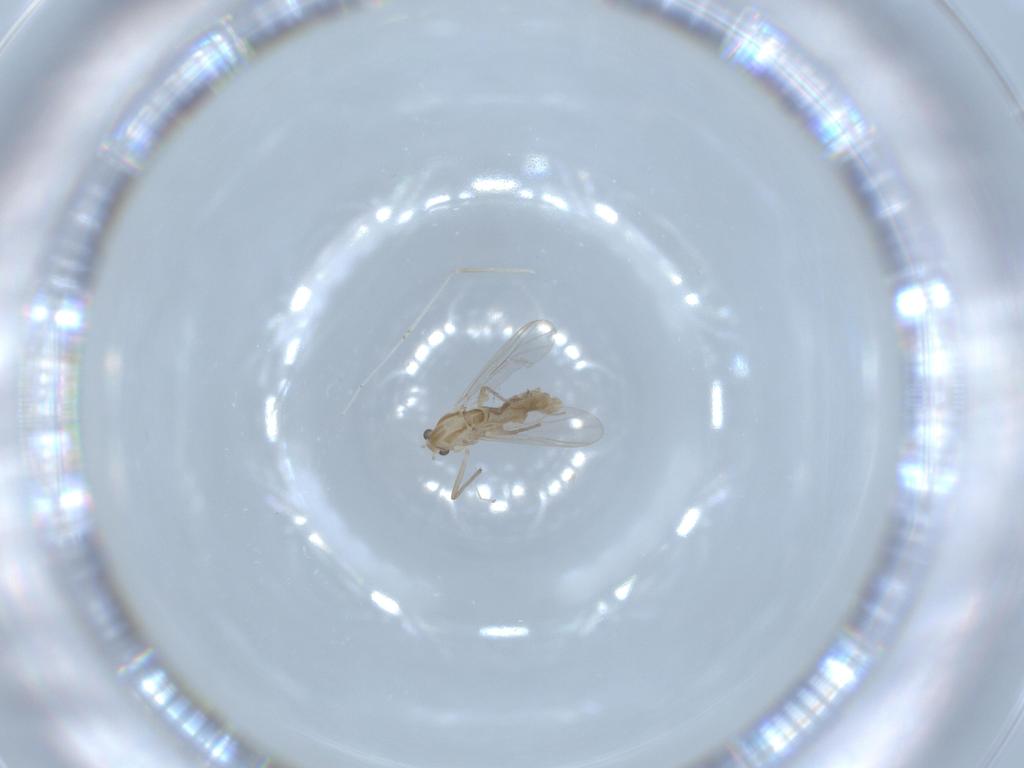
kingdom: Animalia
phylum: Arthropoda
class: Insecta
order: Diptera
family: Chironomidae
